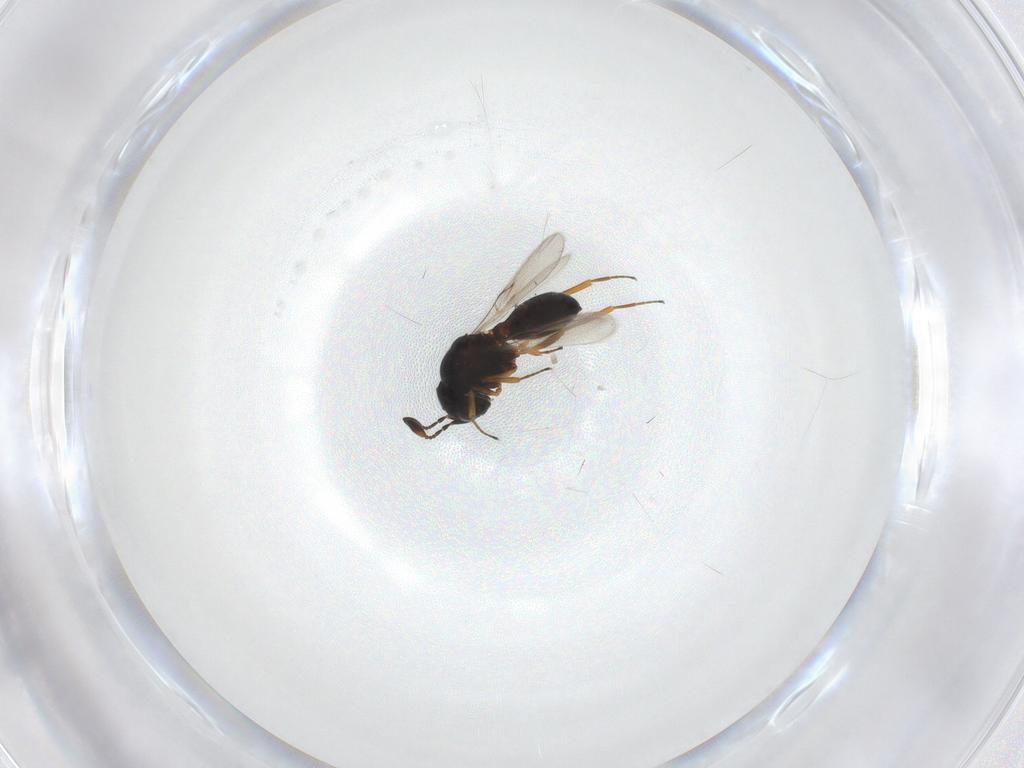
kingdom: Animalia
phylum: Arthropoda
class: Insecta
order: Hymenoptera
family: Scelionidae
